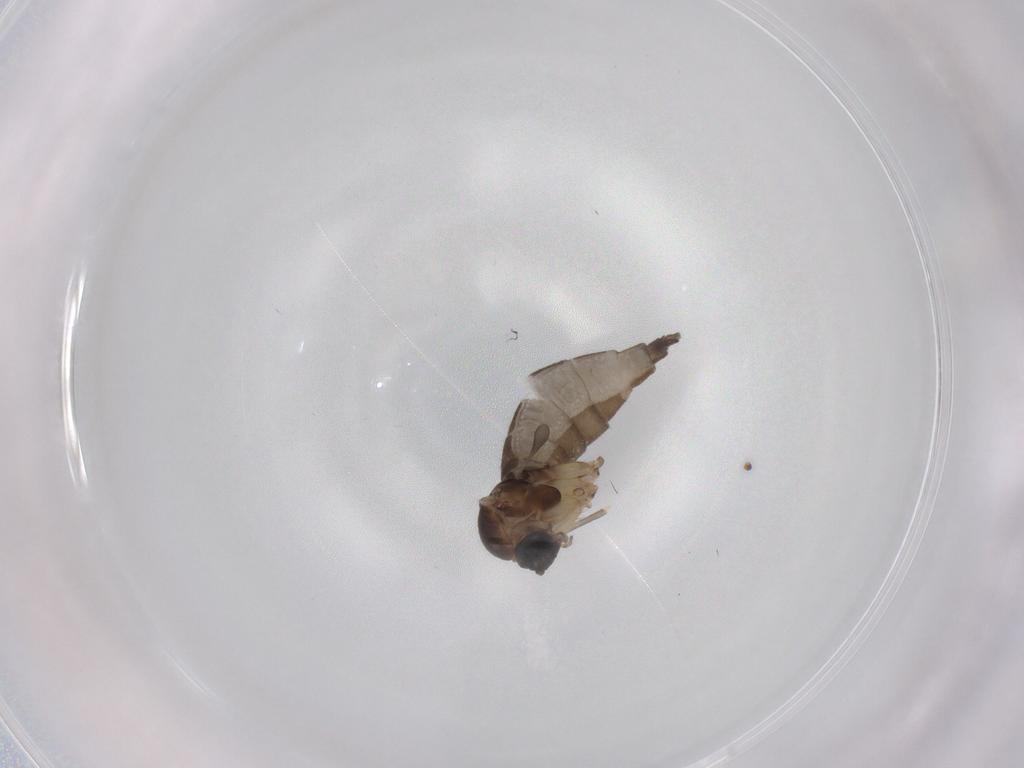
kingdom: Animalia
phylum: Arthropoda
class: Insecta
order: Diptera
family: Sciaridae
